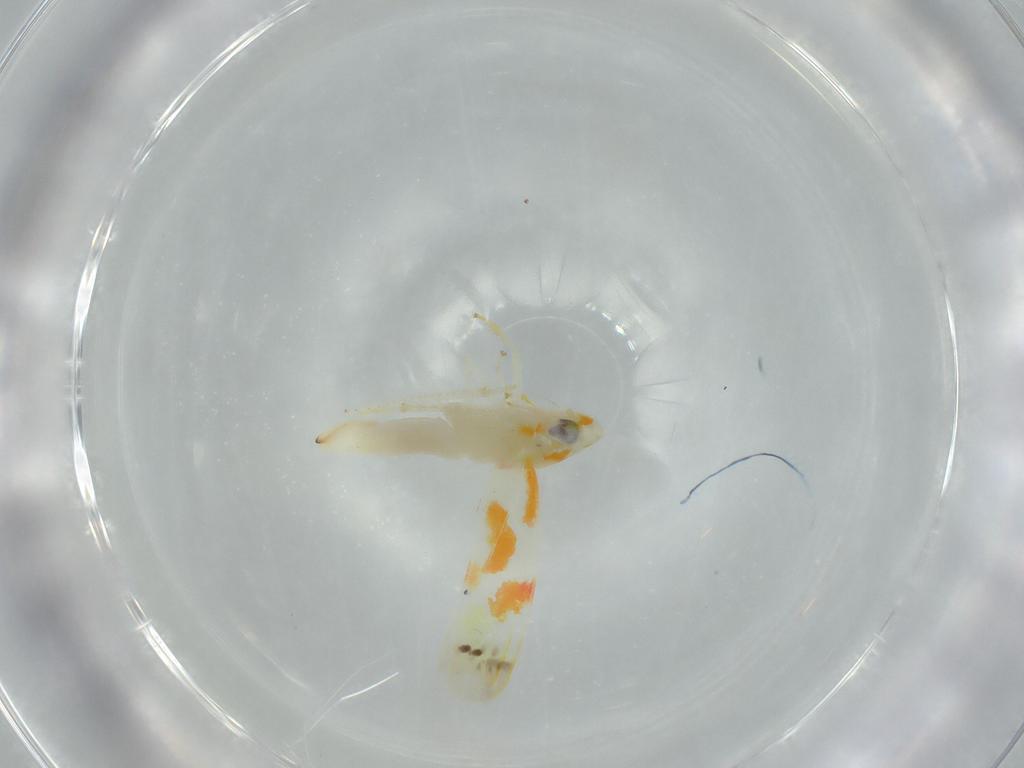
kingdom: Animalia
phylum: Arthropoda
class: Insecta
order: Hemiptera
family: Cicadellidae
